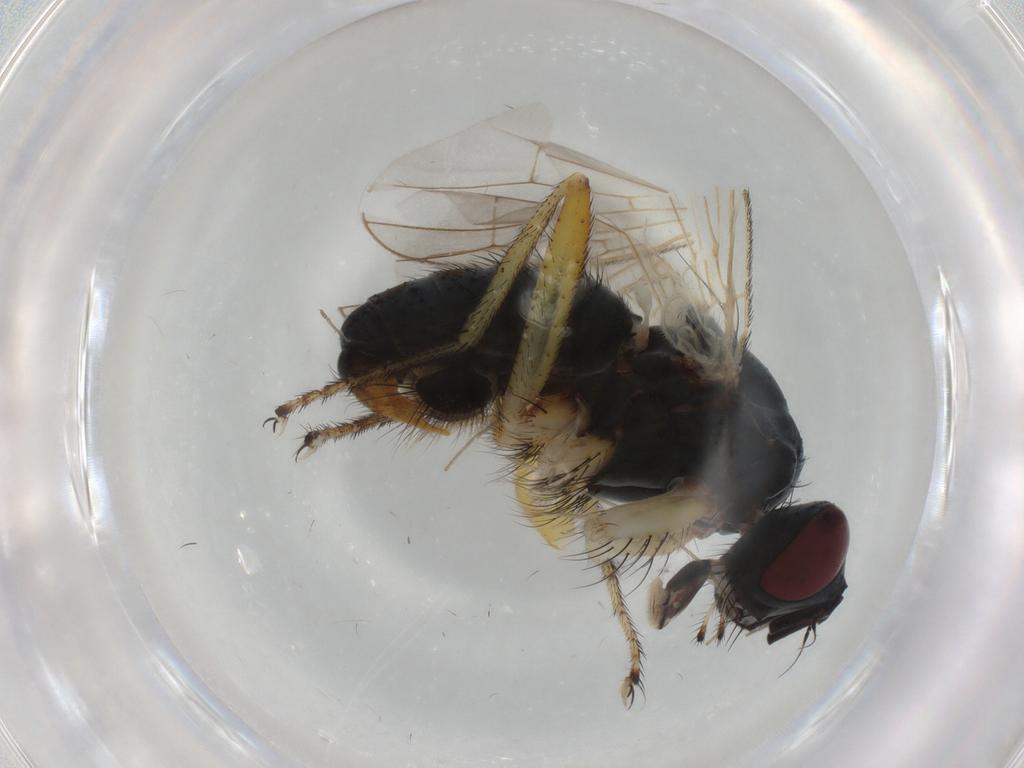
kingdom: Animalia
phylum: Arthropoda
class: Insecta
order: Diptera
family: Muscidae
